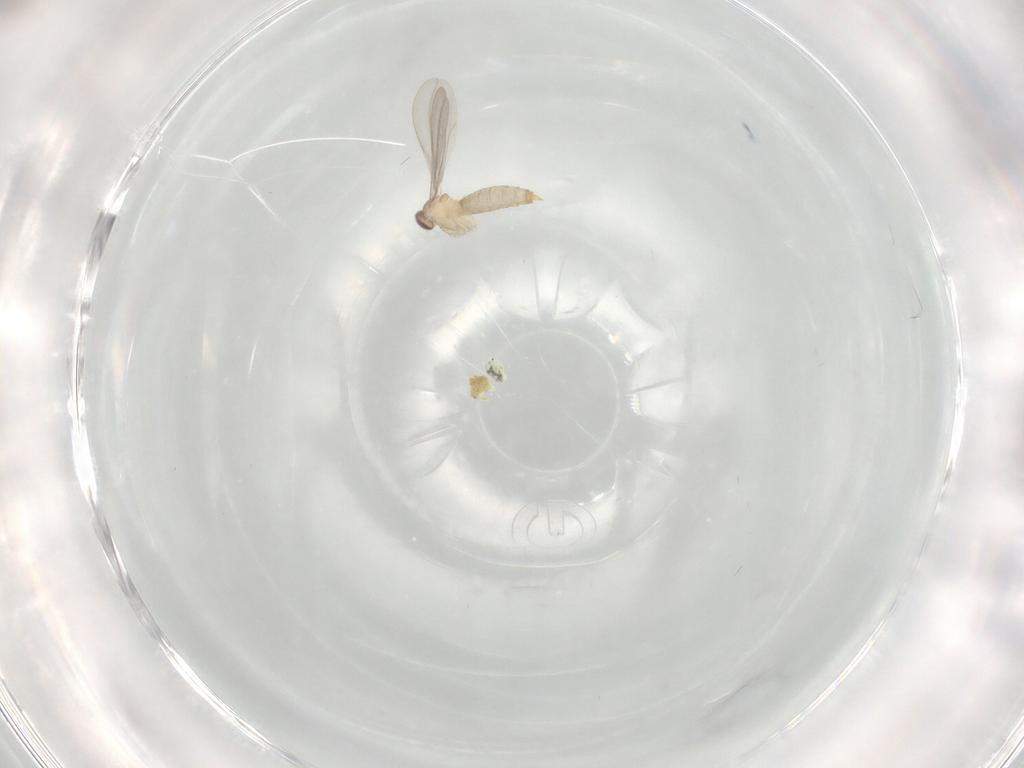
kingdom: Animalia
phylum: Arthropoda
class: Insecta
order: Diptera
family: Cecidomyiidae
